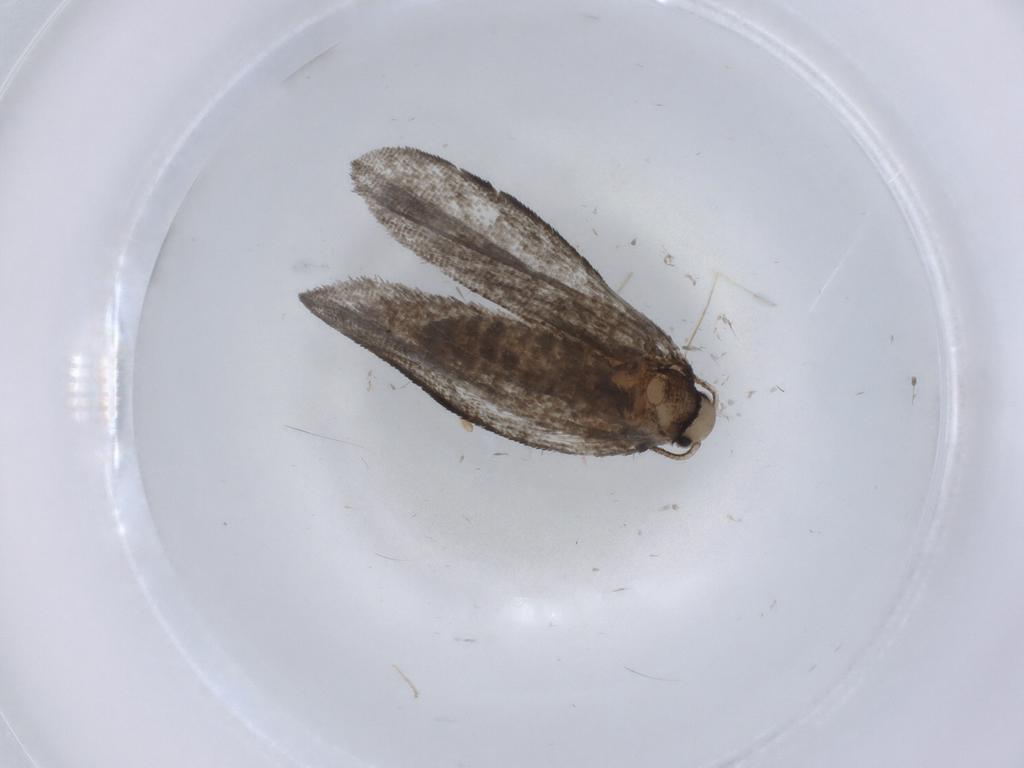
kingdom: Animalia
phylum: Arthropoda
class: Insecta
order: Lepidoptera
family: Psychidae
